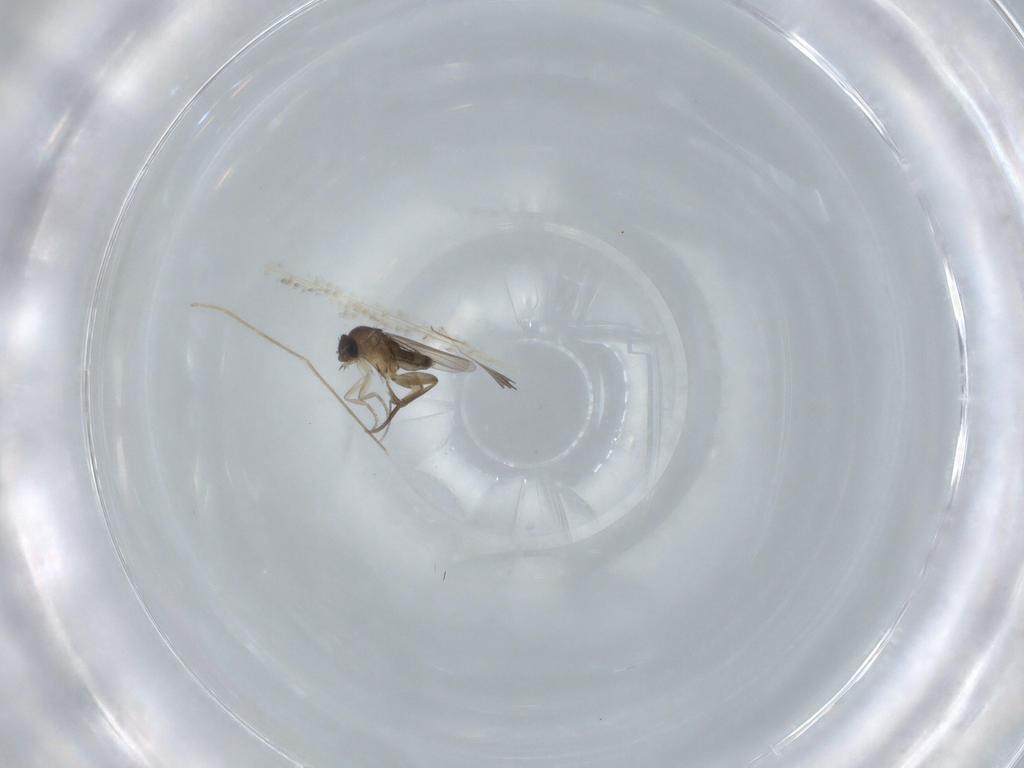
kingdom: Animalia
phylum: Arthropoda
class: Insecta
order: Diptera
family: Phoridae
